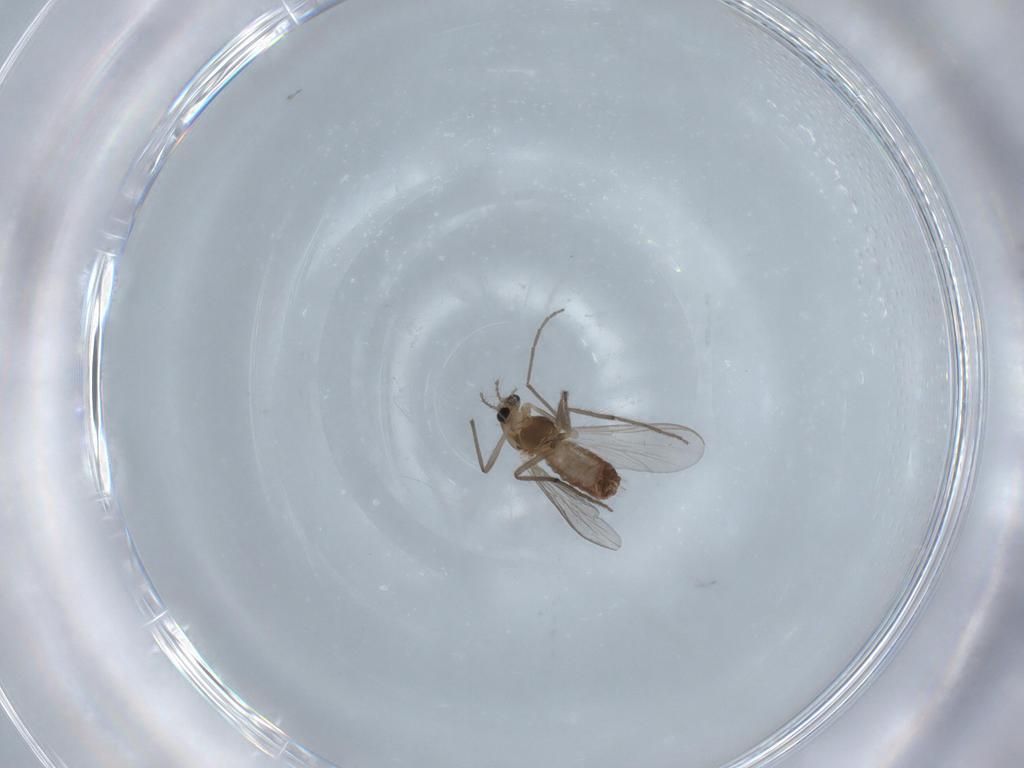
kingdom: Animalia
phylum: Arthropoda
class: Insecta
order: Diptera
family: Chironomidae
